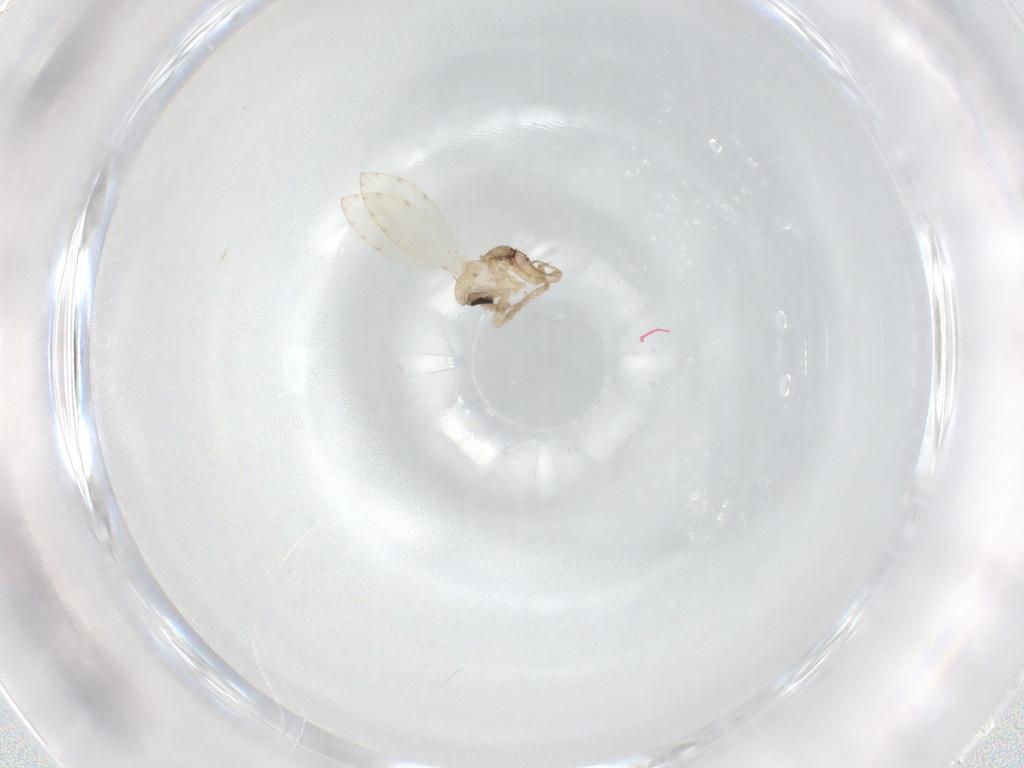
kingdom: Animalia
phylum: Arthropoda
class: Insecta
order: Diptera
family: Psychodidae
